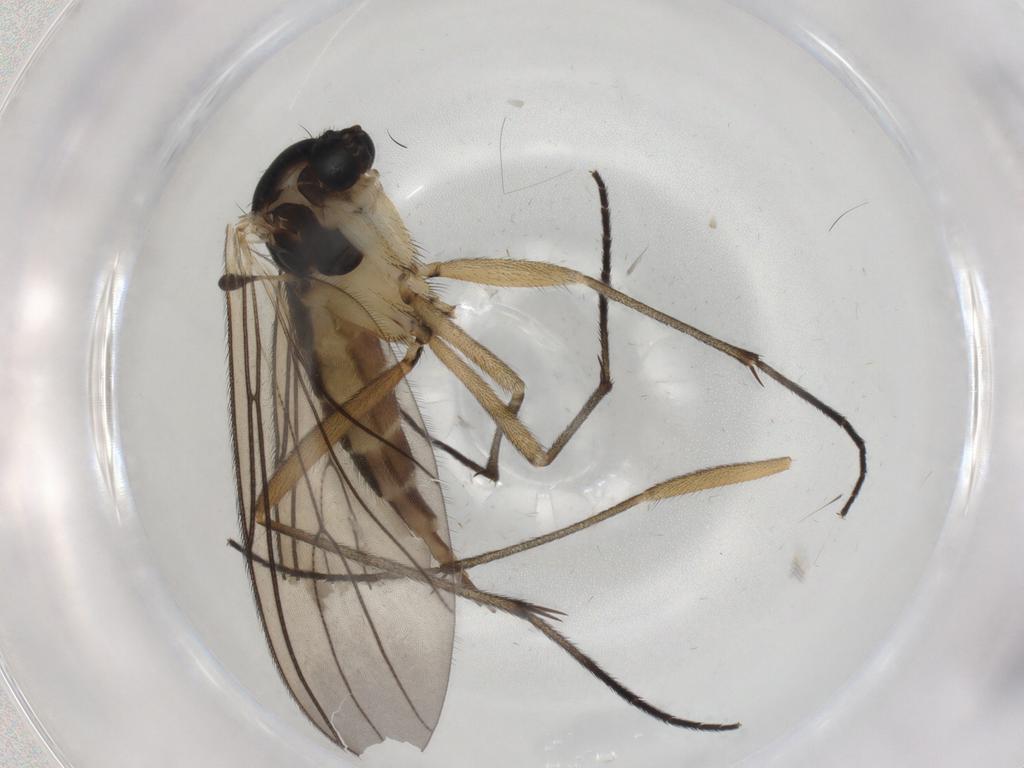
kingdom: Animalia
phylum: Arthropoda
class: Insecta
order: Diptera
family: Sciaridae
